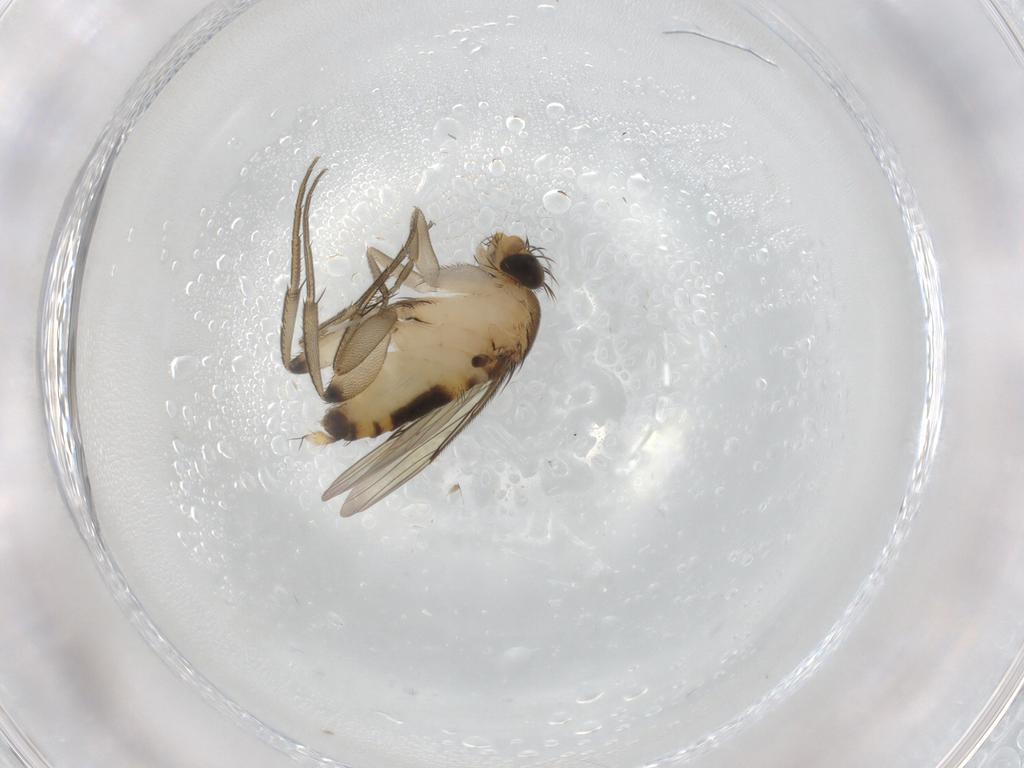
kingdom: Animalia
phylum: Arthropoda
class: Insecta
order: Diptera
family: Phoridae
